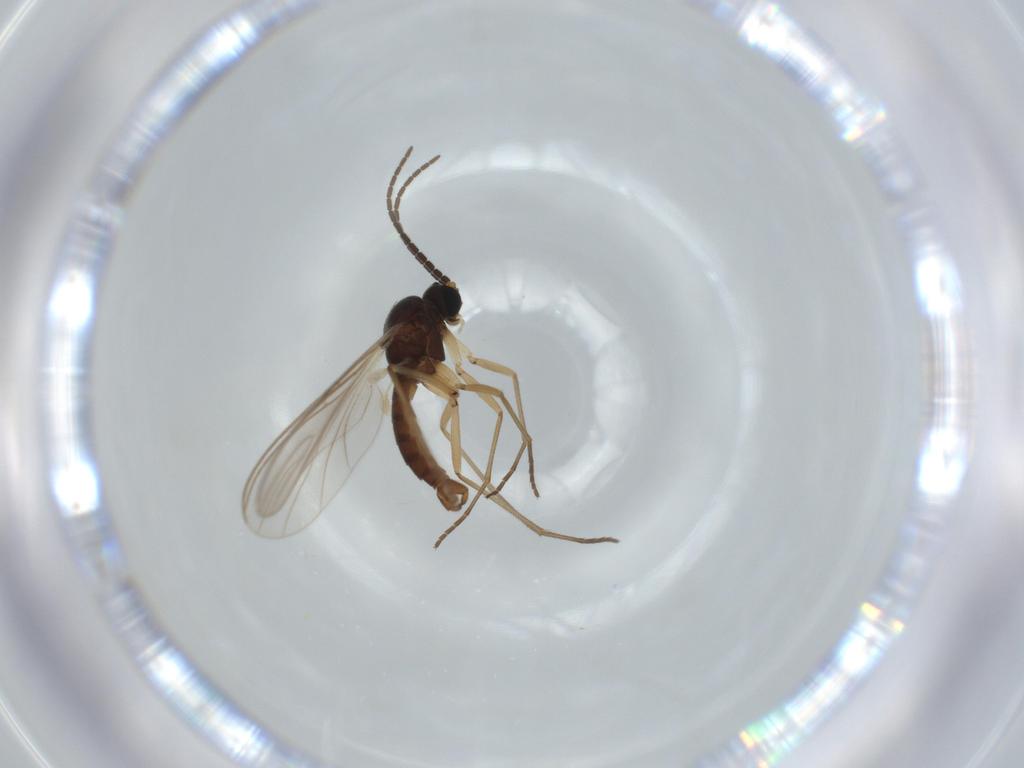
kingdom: Animalia
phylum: Arthropoda
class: Insecta
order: Diptera
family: Sciaridae
